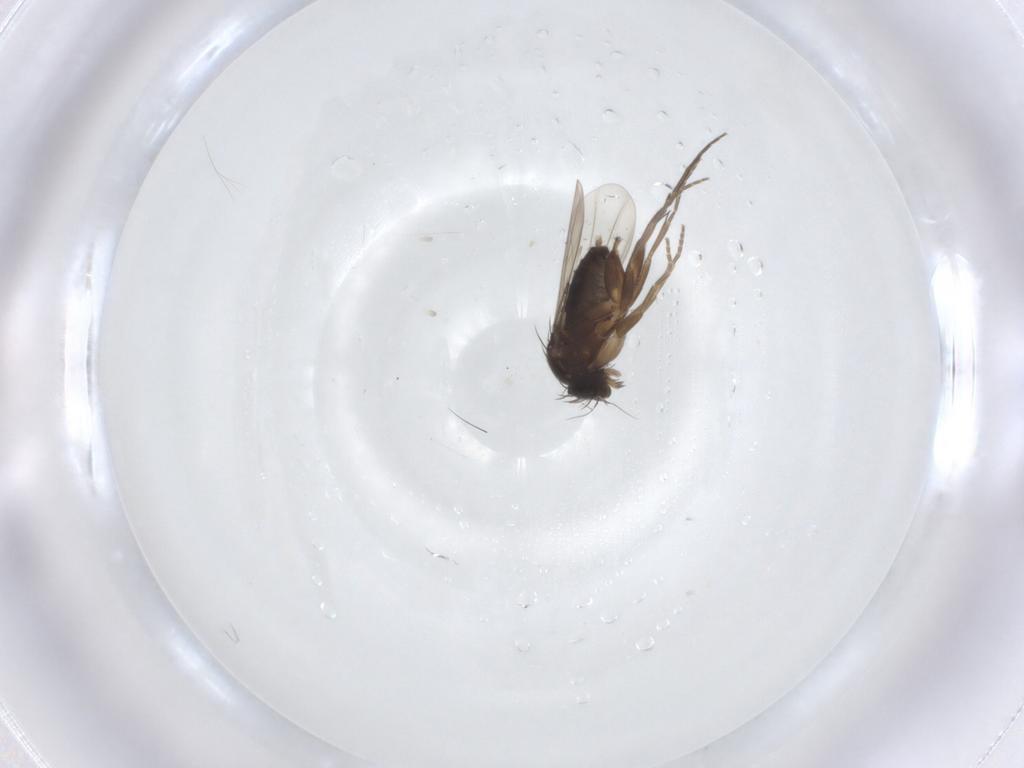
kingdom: Animalia
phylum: Arthropoda
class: Insecta
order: Diptera
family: Phoridae
